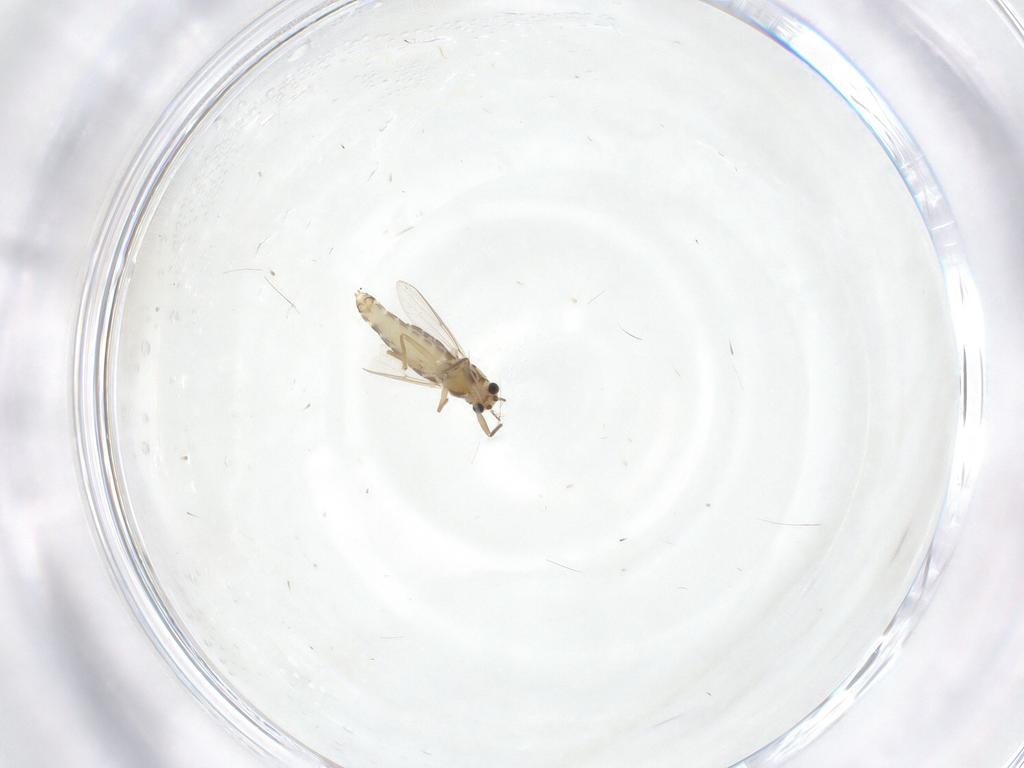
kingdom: Animalia
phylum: Arthropoda
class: Insecta
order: Diptera
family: Chironomidae
